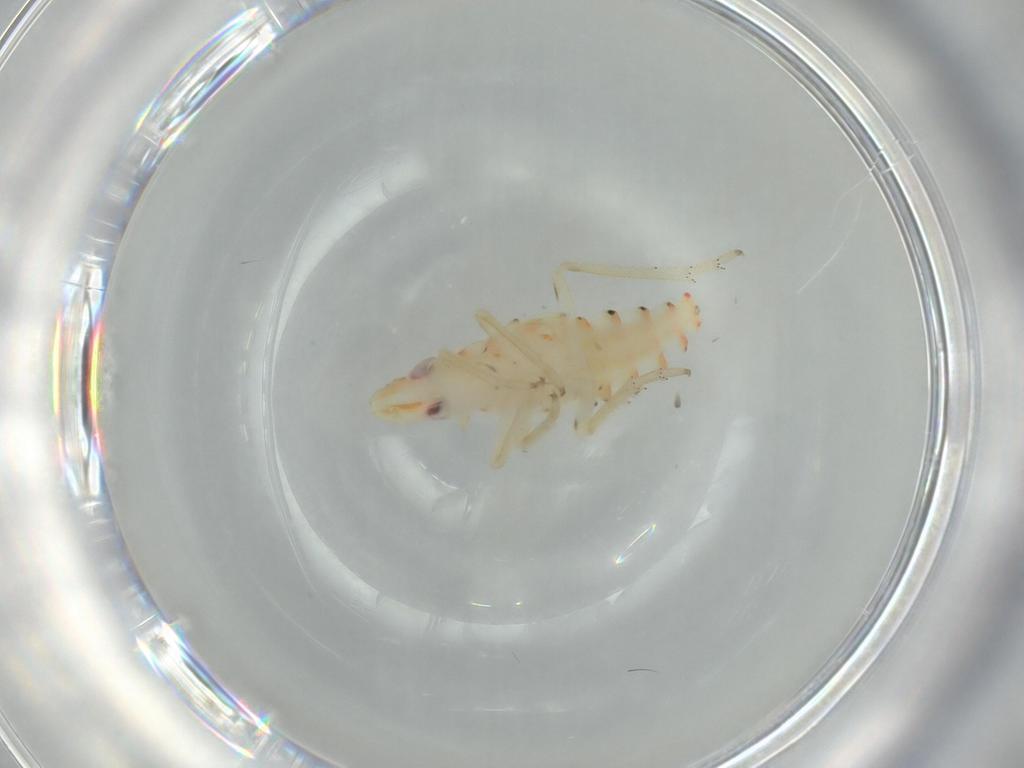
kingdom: Animalia
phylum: Arthropoda
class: Insecta
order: Hemiptera
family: Tropiduchidae
